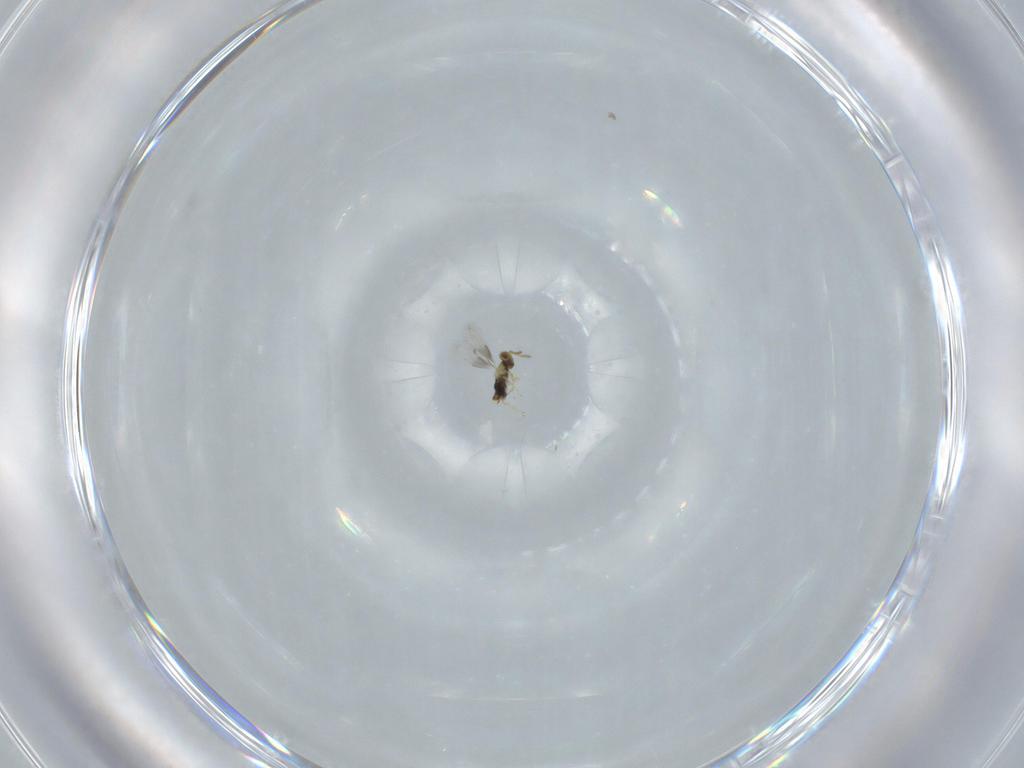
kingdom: Animalia
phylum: Arthropoda
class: Insecta
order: Hymenoptera
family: Aphelinidae
